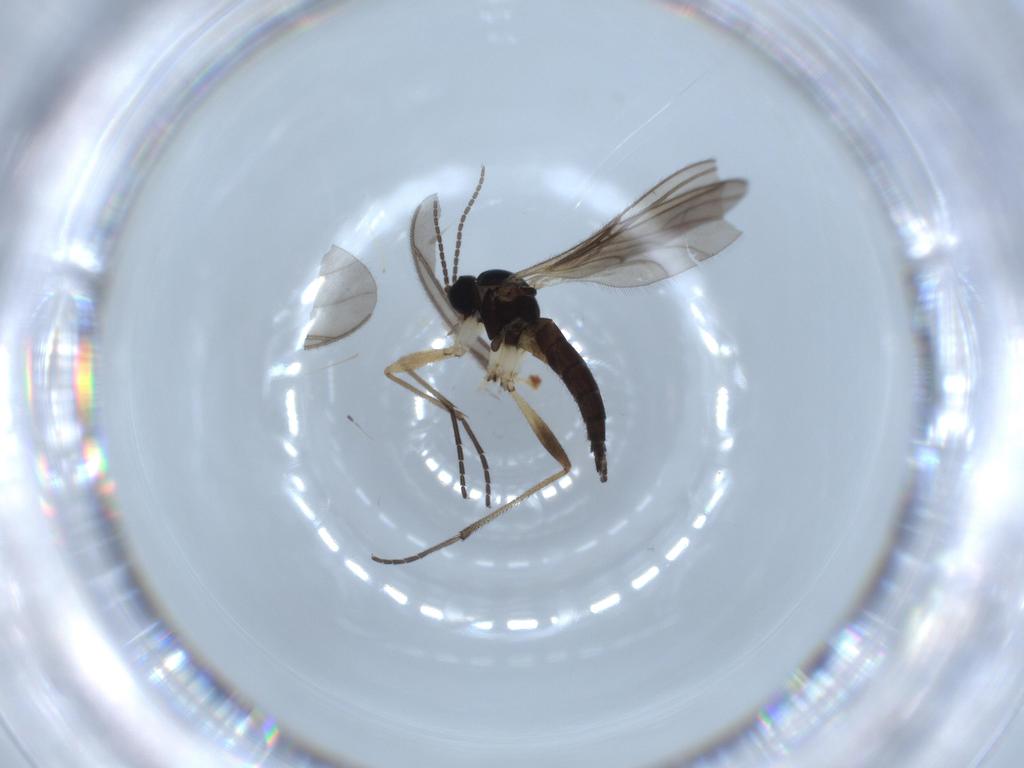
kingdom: Animalia
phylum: Arthropoda
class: Insecta
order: Diptera
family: Sciaridae
